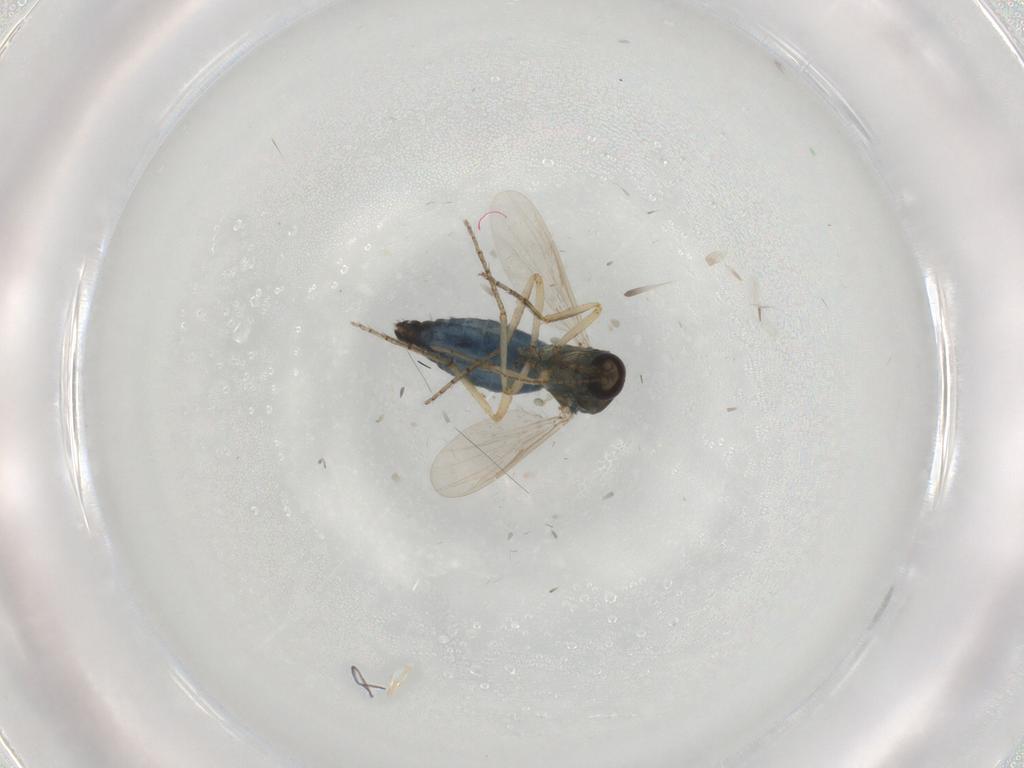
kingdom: Animalia
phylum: Arthropoda
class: Insecta
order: Diptera
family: Ceratopogonidae
